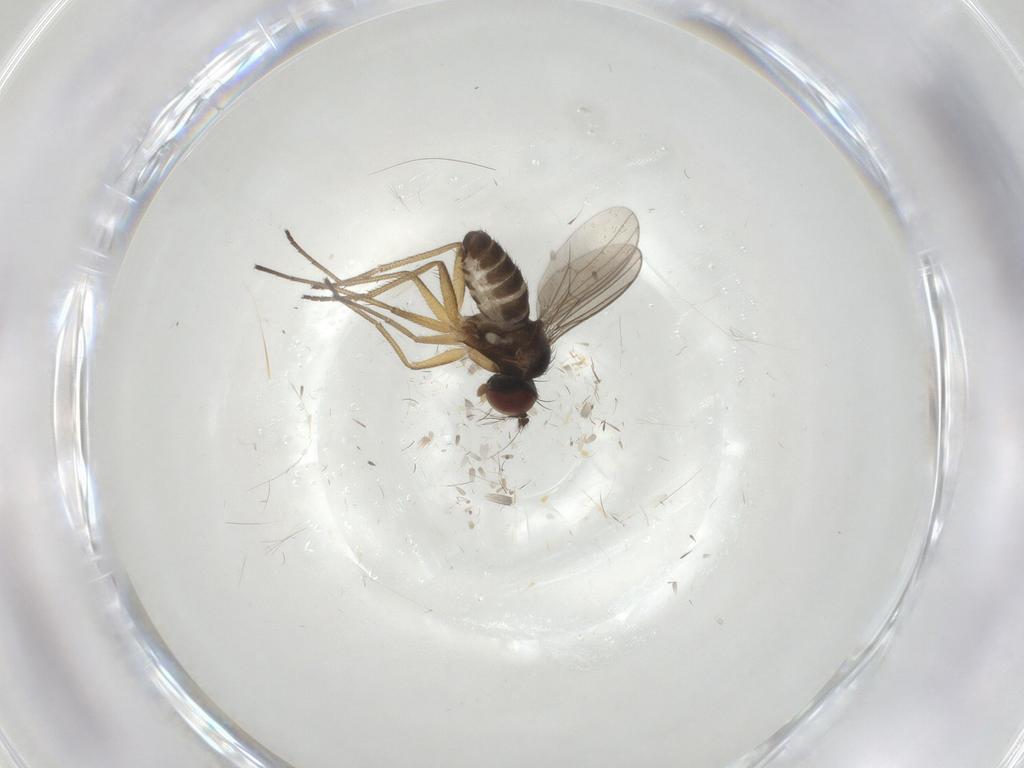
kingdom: Animalia
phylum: Arthropoda
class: Insecta
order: Diptera
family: Dolichopodidae
